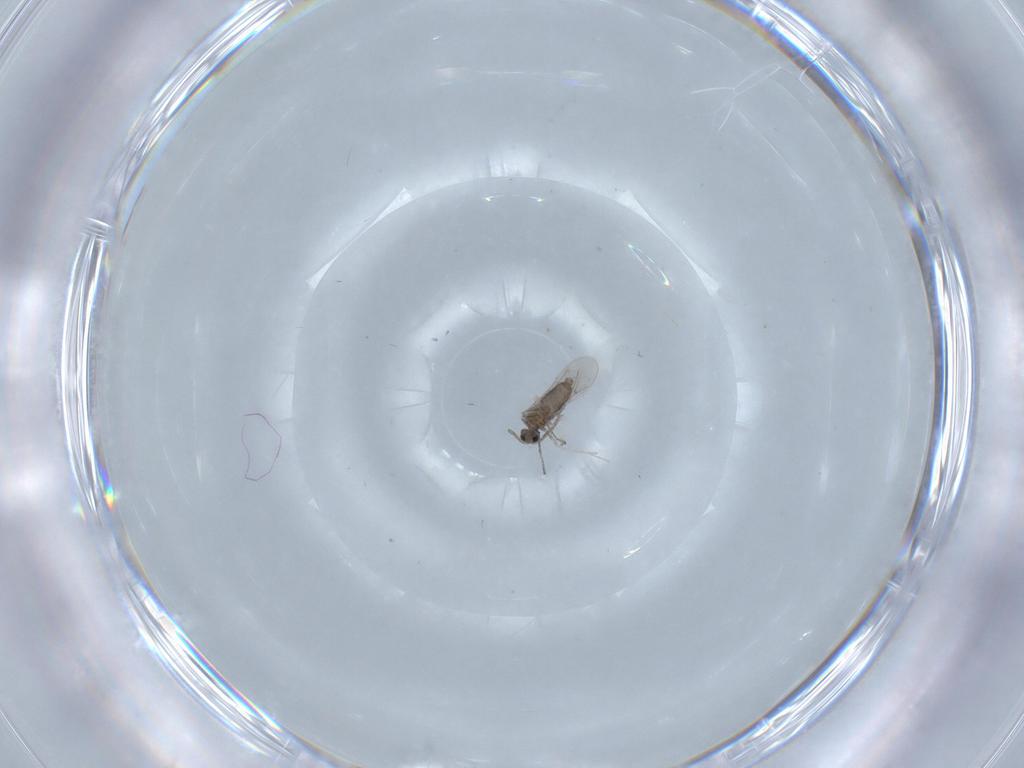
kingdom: Animalia
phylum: Arthropoda
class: Insecta
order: Diptera
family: Cecidomyiidae
